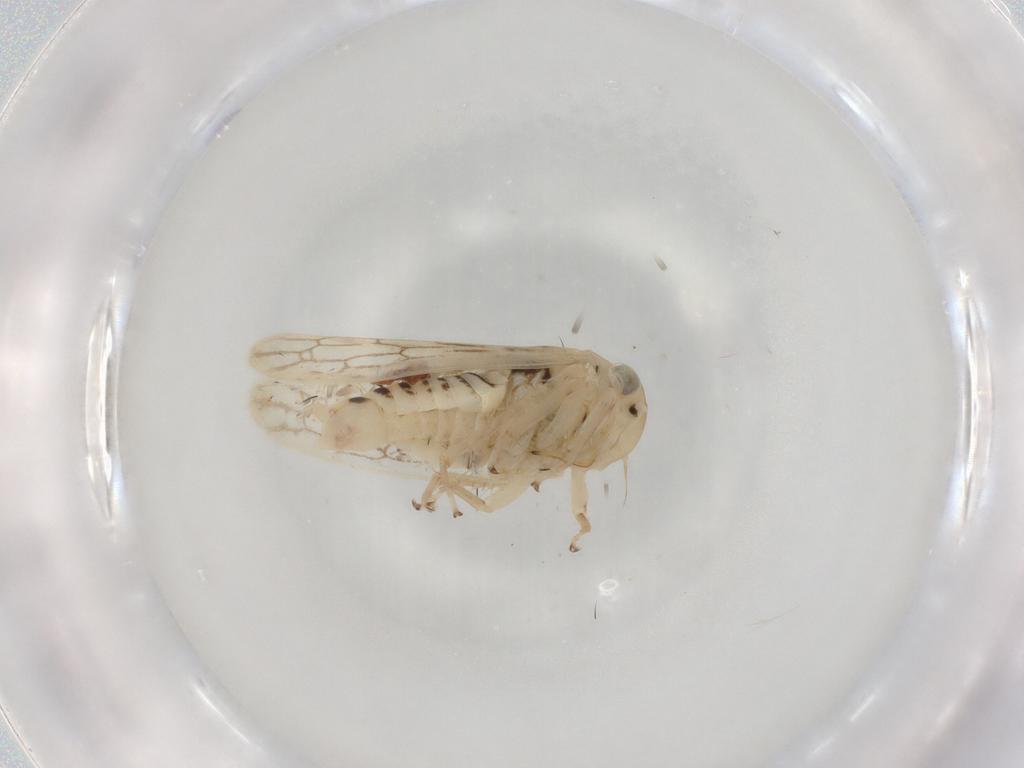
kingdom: Animalia
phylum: Arthropoda
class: Insecta
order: Hemiptera
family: Cicadellidae
